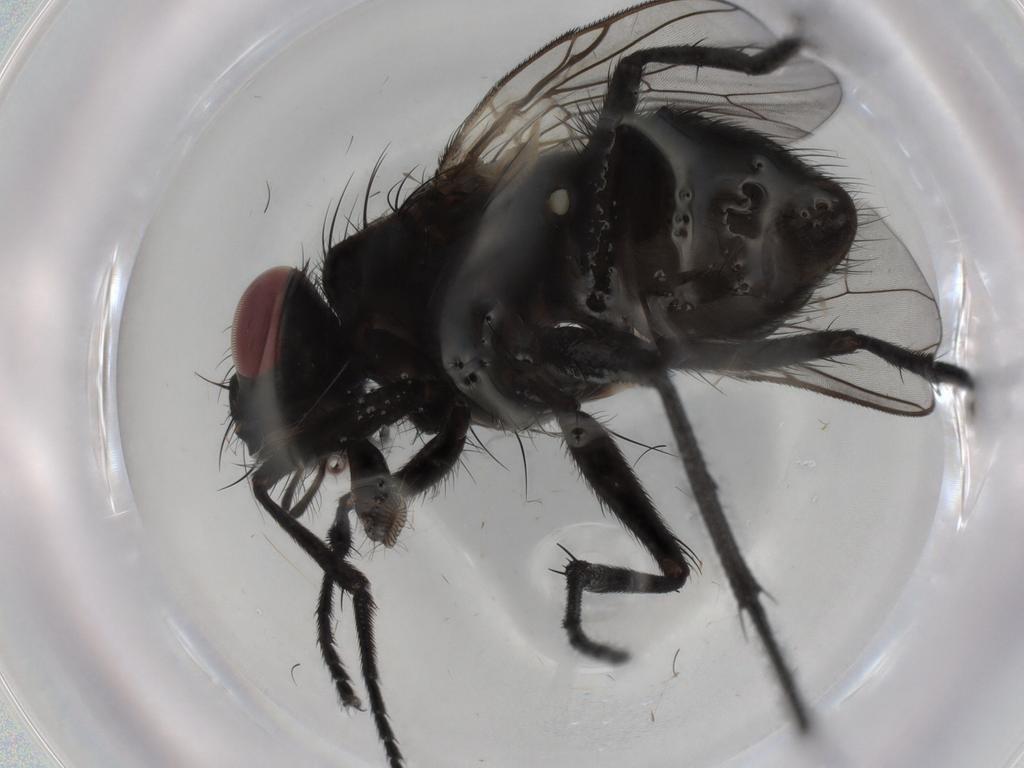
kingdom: Animalia
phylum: Arthropoda
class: Insecta
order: Diptera
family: Muscidae
